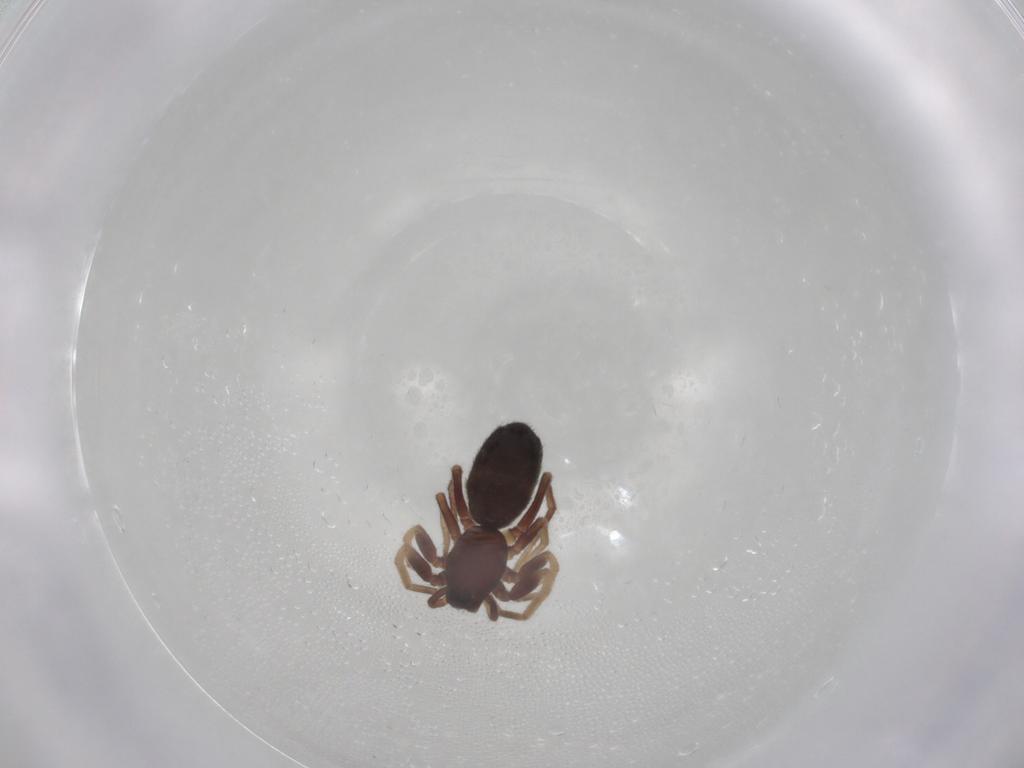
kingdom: Animalia
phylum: Arthropoda
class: Arachnida
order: Araneae
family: Gnaphosidae
